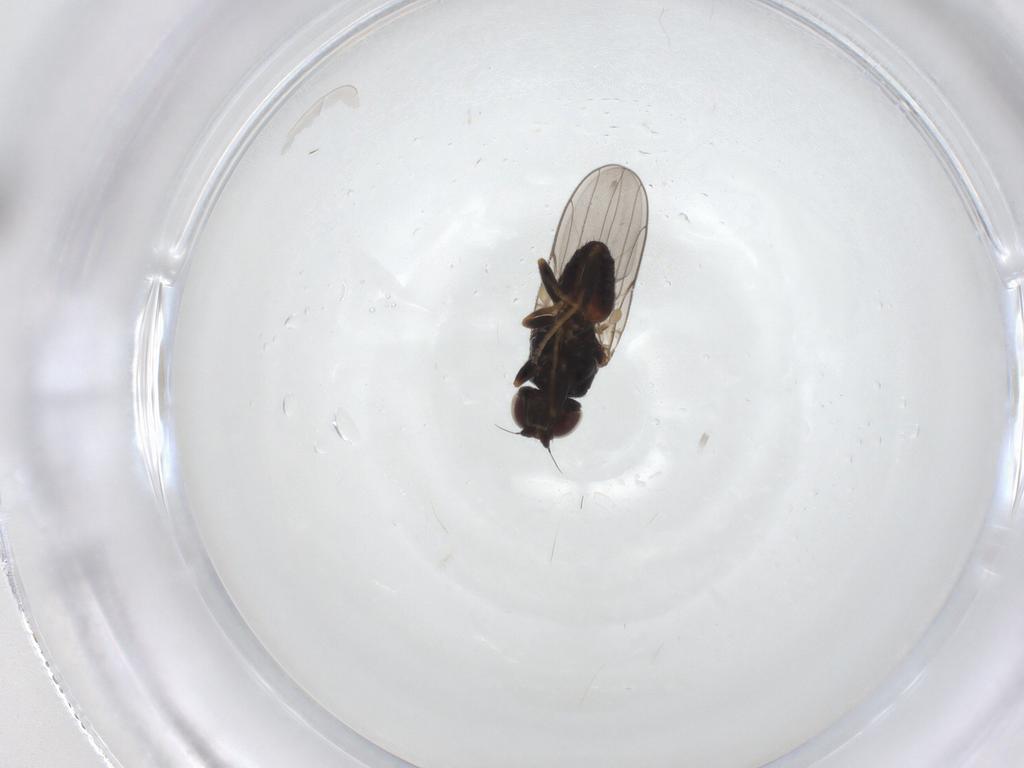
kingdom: Animalia
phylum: Arthropoda
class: Insecta
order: Diptera
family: Chloropidae
